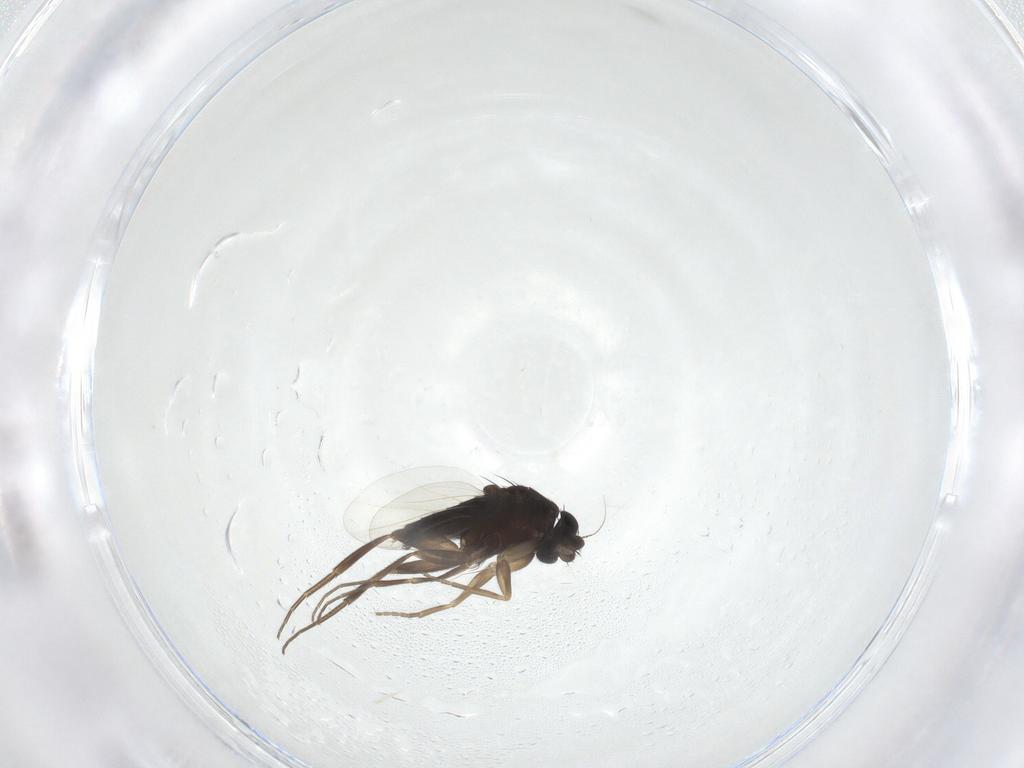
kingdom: Animalia
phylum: Arthropoda
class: Insecta
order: Diptera
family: Phoridae
